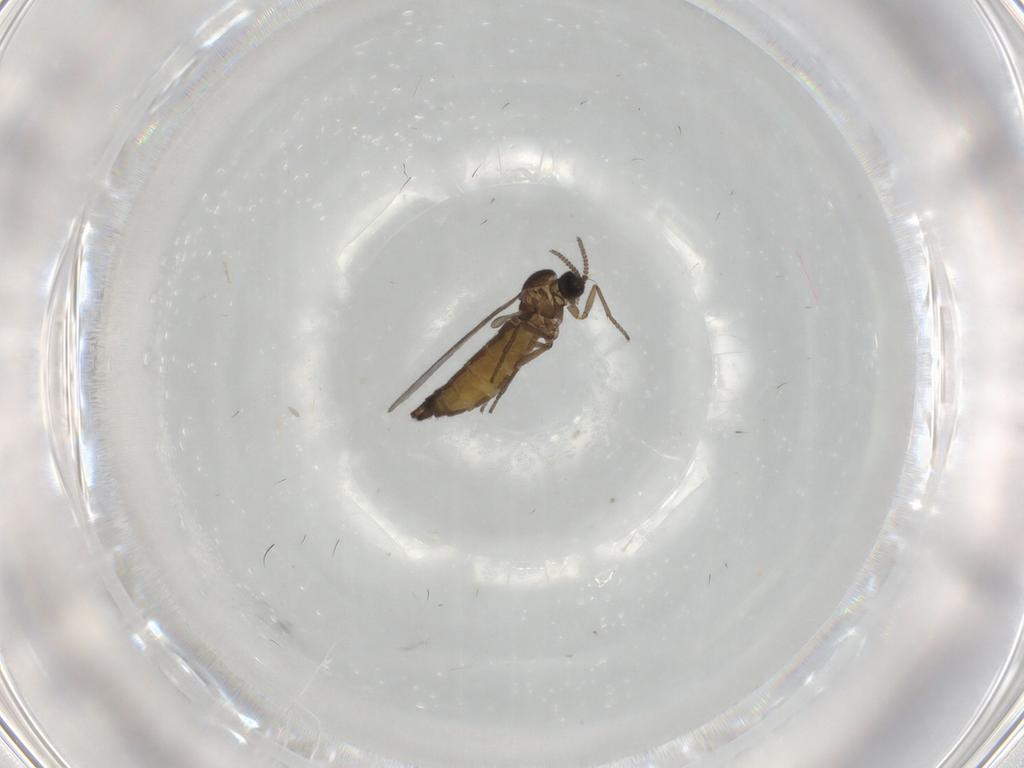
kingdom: Animalia
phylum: Arthropoda
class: Insecta
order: Diptera
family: Sciaridae
